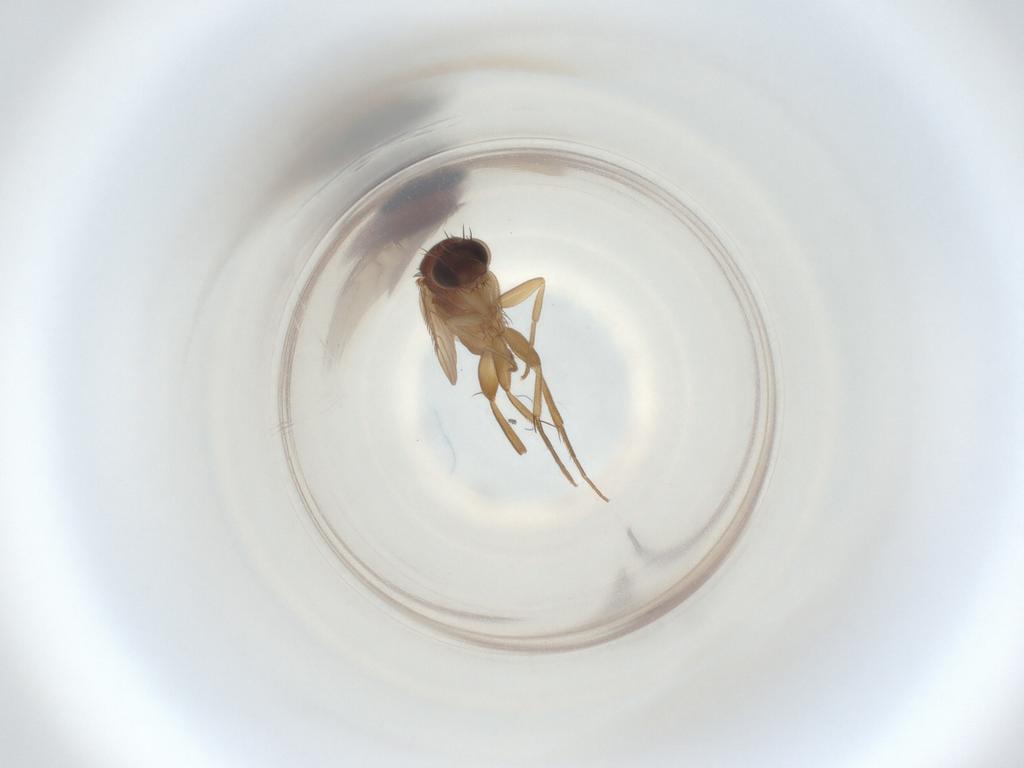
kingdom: Animalia
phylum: Arthropoda
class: Insecta
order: Diptera
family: Phoridae
